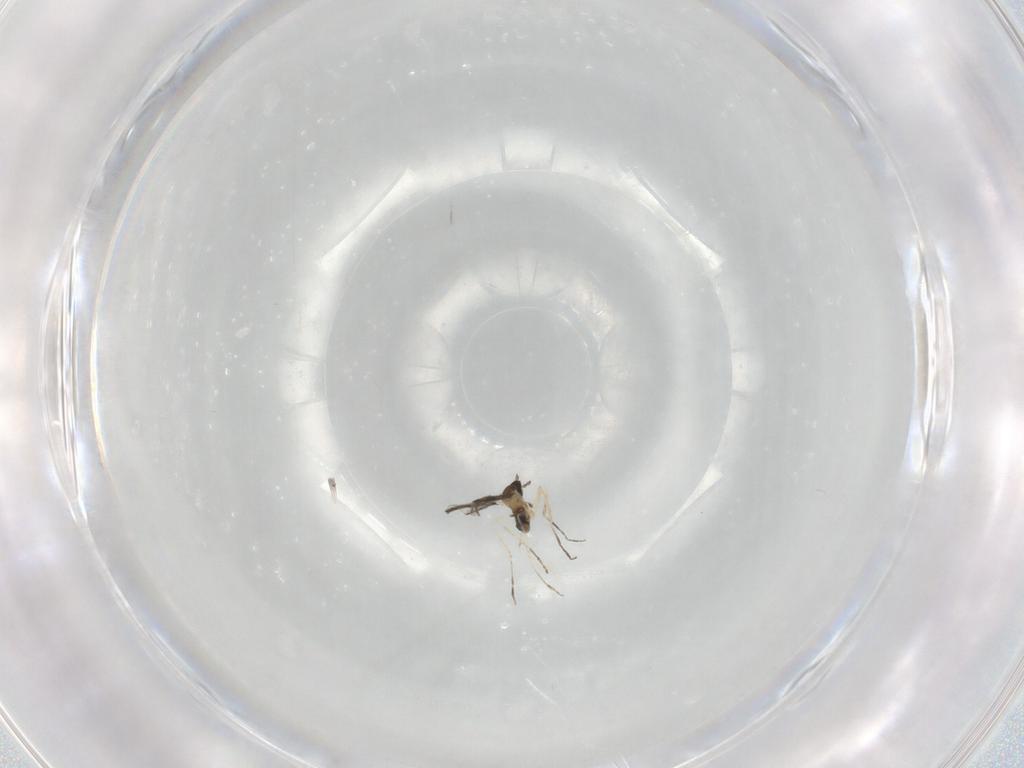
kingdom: Animalia
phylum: Arthropoda
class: Insecta
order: Diptera
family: Cecidomyiidae
